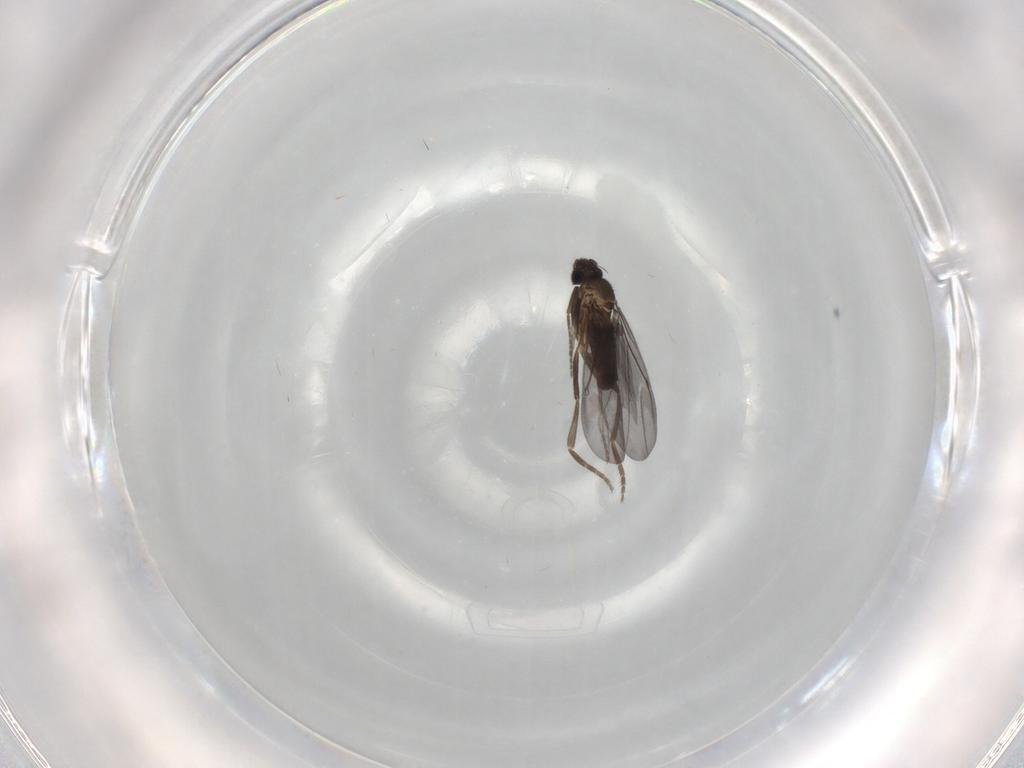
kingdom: Animalia
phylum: Arthropoda
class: Insecta
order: Diptera
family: Phoridae
